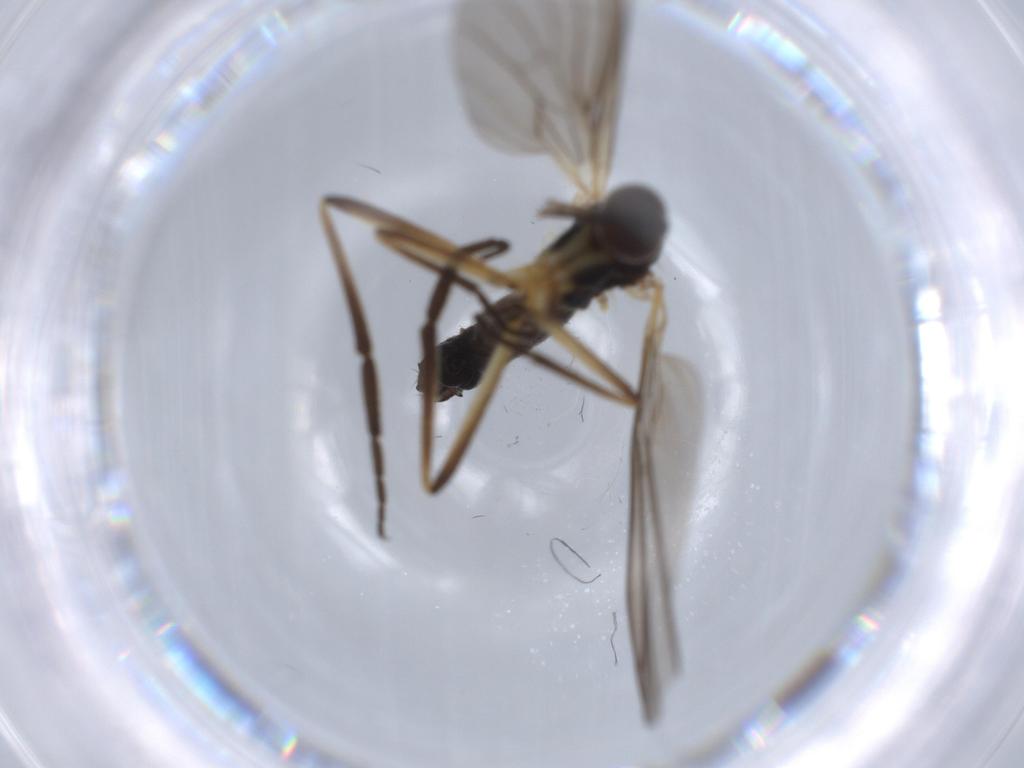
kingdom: Animalia
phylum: Arthropoda
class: Insecta
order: Diptera
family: Empididae
